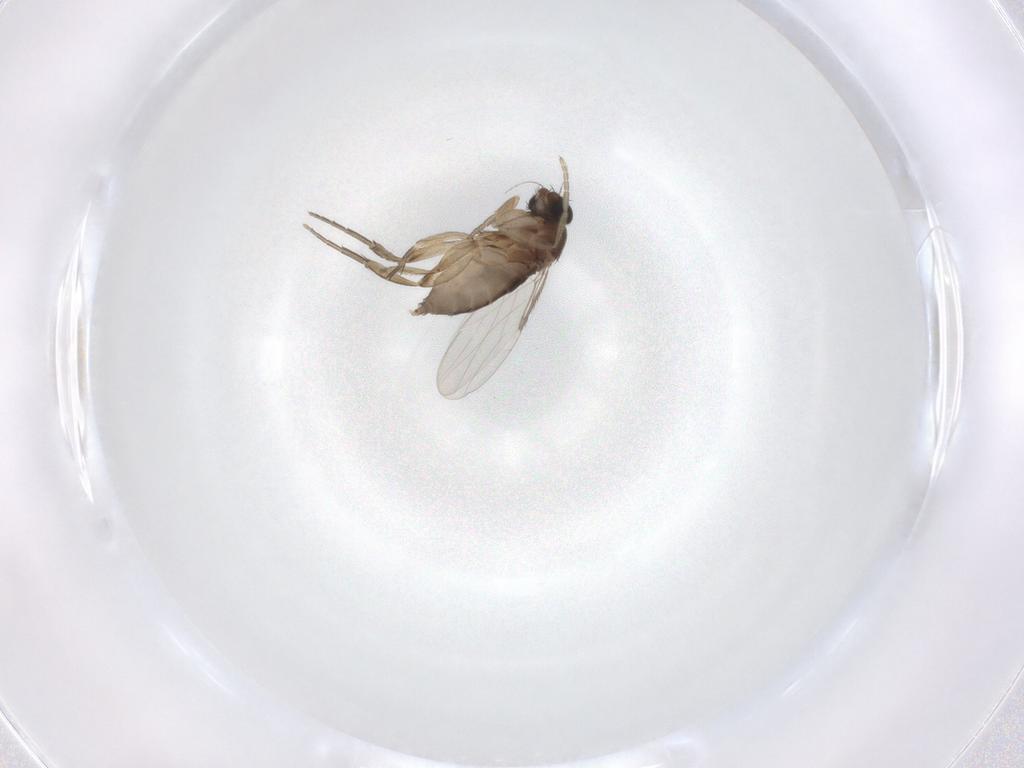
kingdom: Animalia
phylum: Arthropoda
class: Insecta
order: Diptera
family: Phoridae
